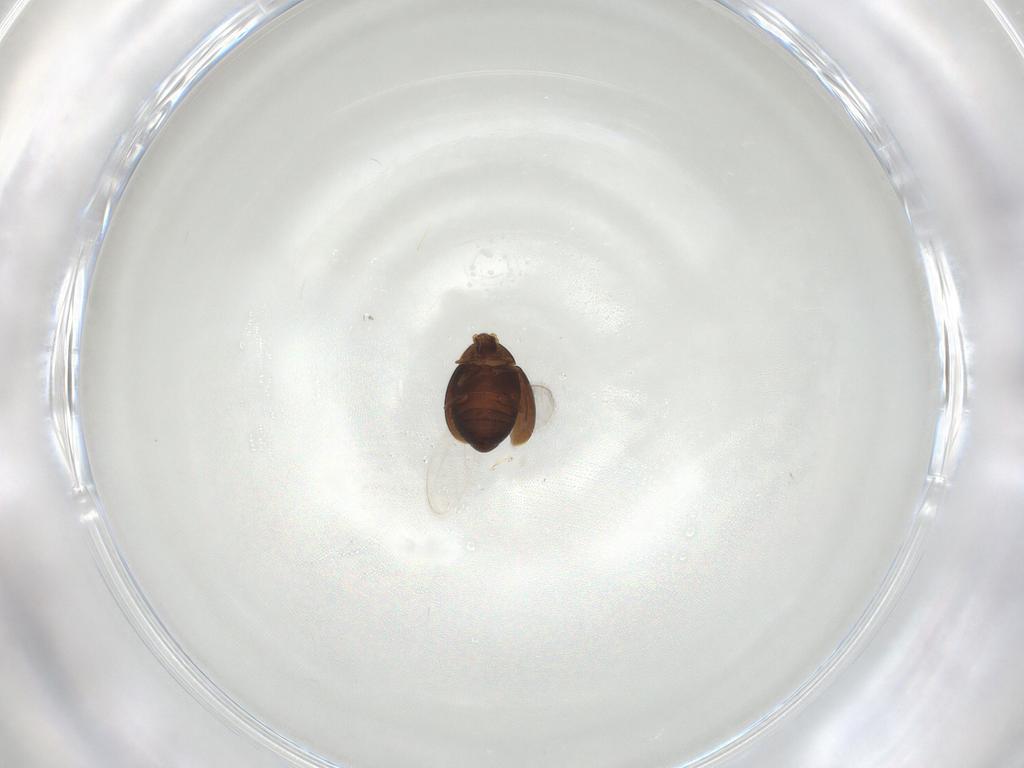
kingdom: Animalia
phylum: Arthropoda
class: Insecta
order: Coleoptera
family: Corylophidae
